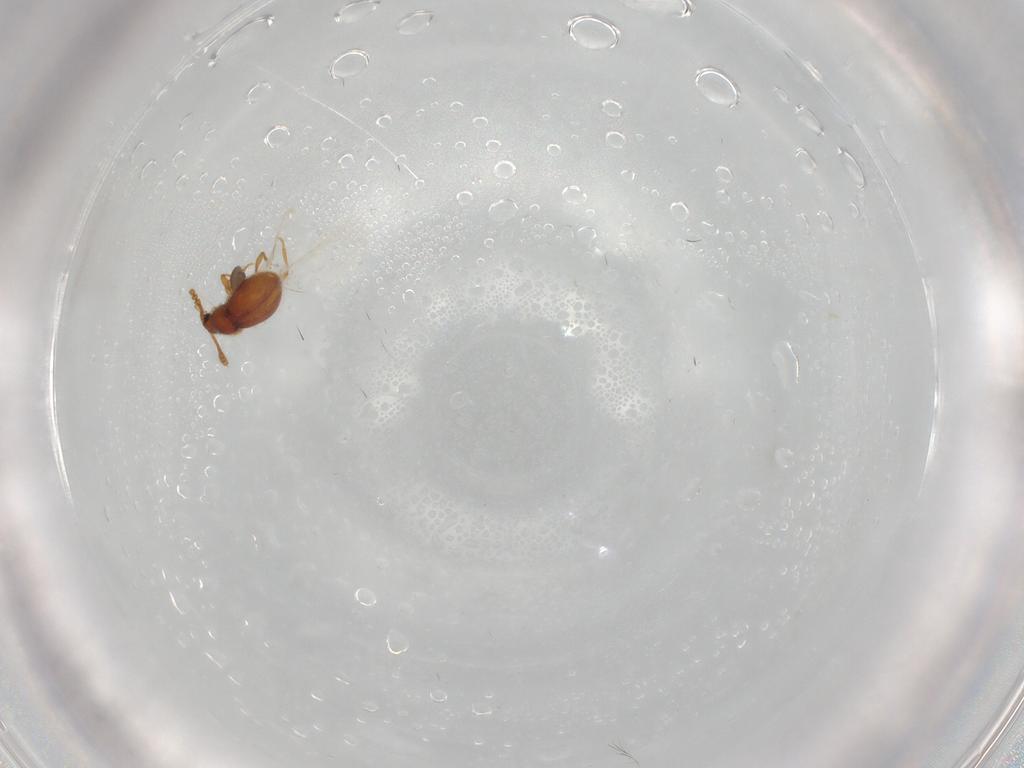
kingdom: Animalia
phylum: Arthropoda
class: Insecta
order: Coleoptera
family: Staphylinidae
